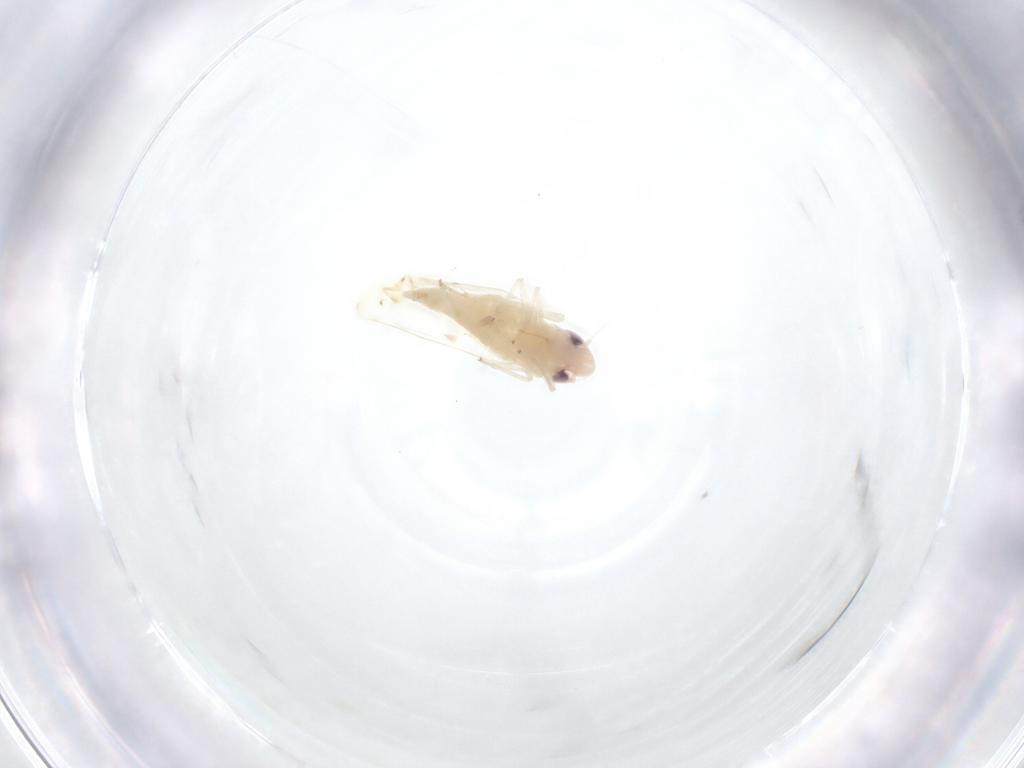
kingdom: Animalia
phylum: Arthropoda
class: Insecta
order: Hemiptera
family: Cicadellidae
